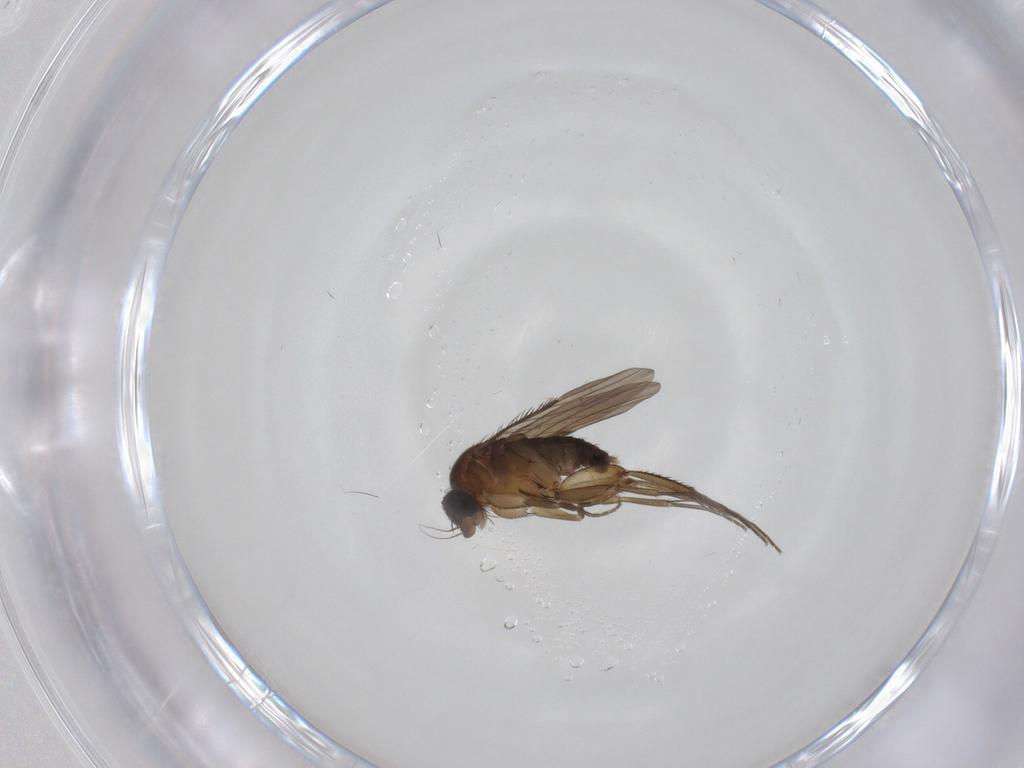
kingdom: Animalia
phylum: Arthropoda
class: Insecta
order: Diptera
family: Phoridae
